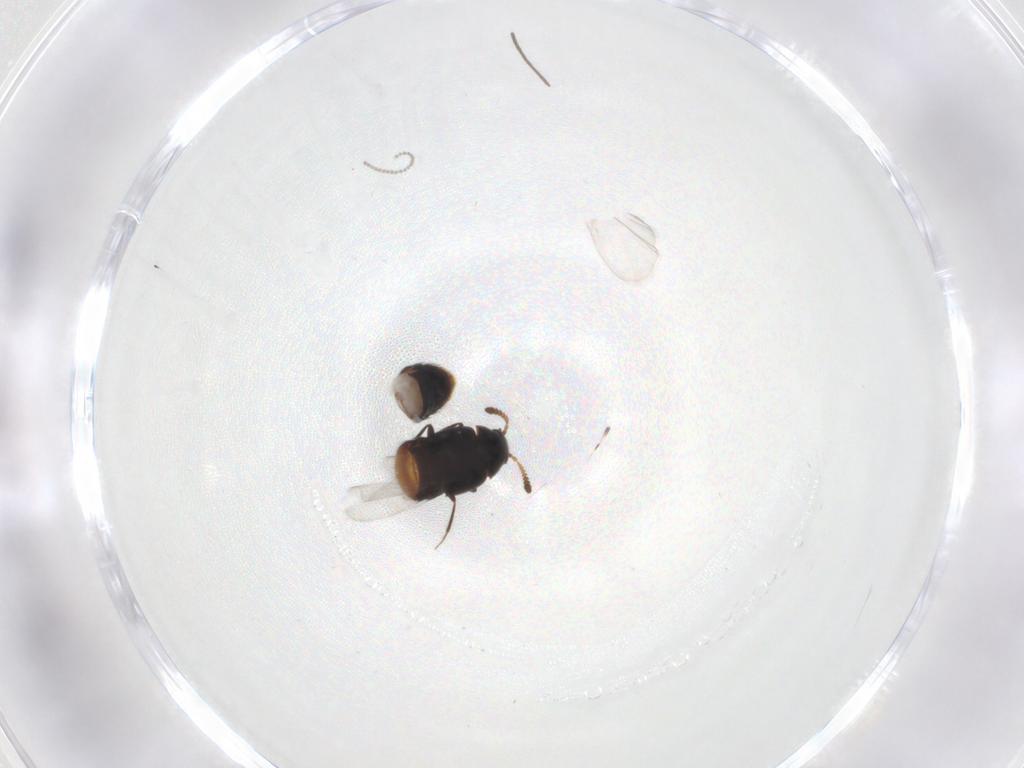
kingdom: Animalia
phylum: Arthropoda
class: Insecta
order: Coleoptera
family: Staphylinidae
